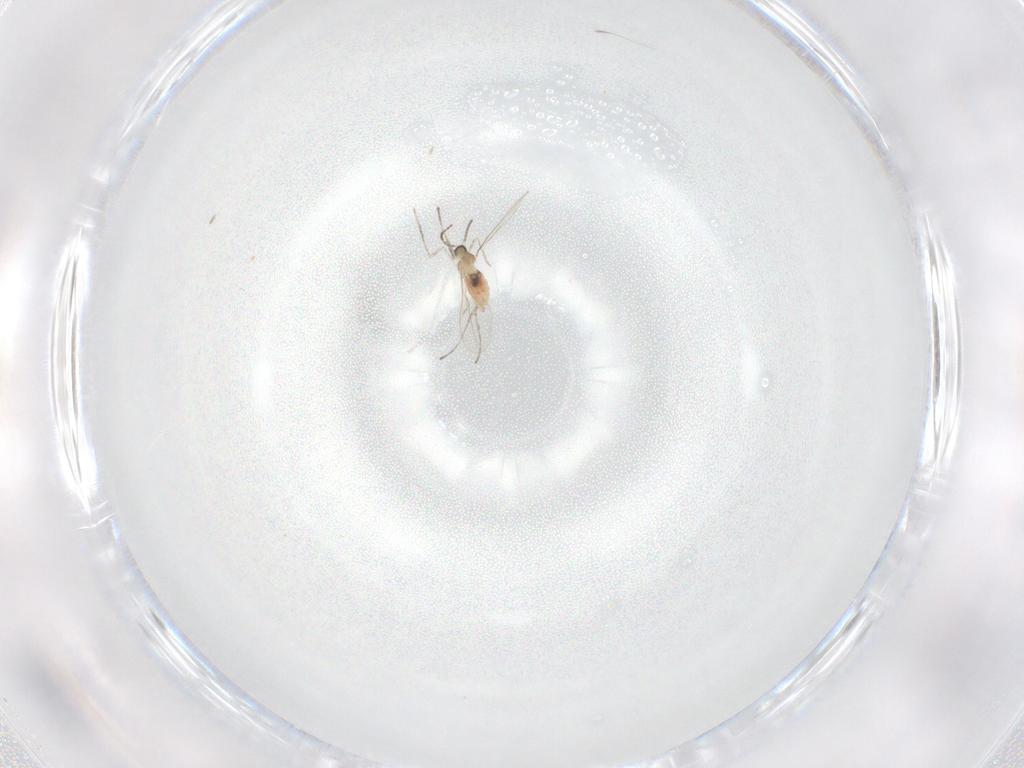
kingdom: Animalia
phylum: Arthropoda
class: Insecta
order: Diptera
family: Cecidomyiidae
